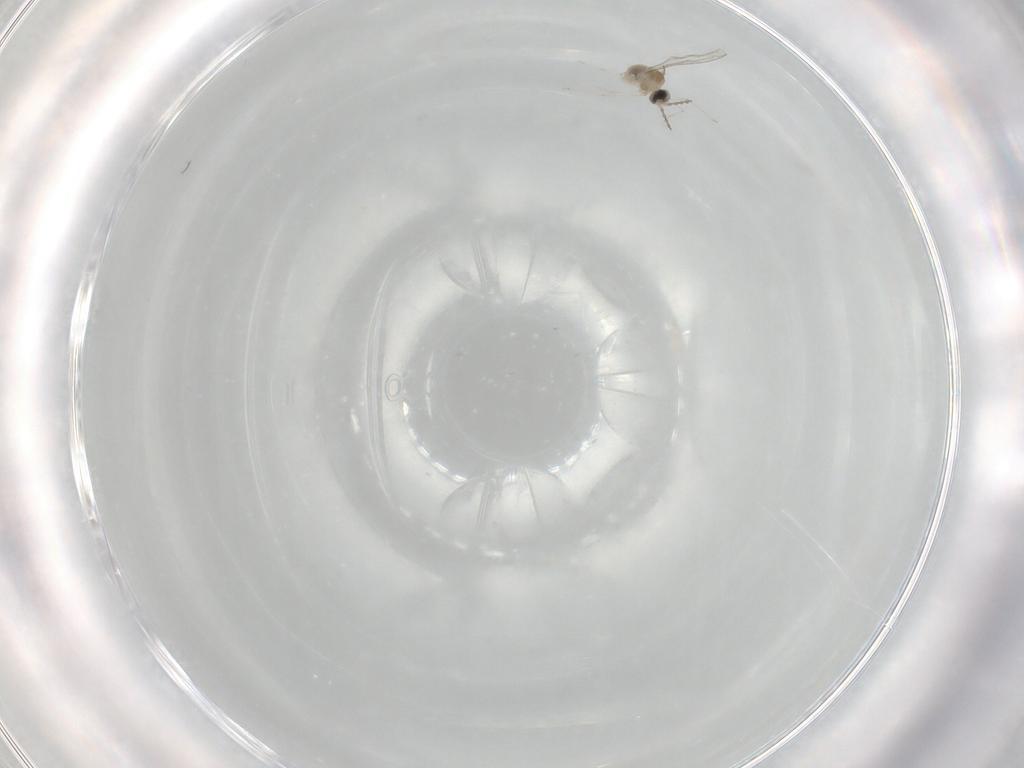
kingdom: Animalia
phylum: Arthropoda
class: Insecta
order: Diptera
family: Cecidomyiidae
